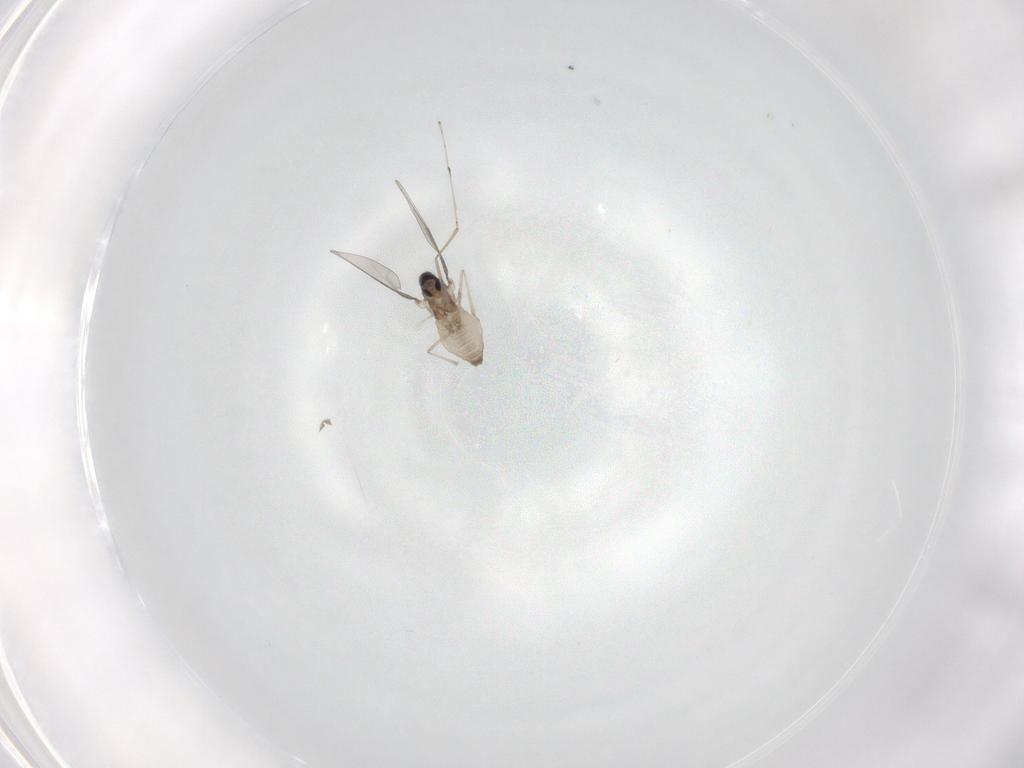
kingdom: Animalia
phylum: Arthropoda
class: Insecta
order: Diptera
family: Cecidomyiidae
